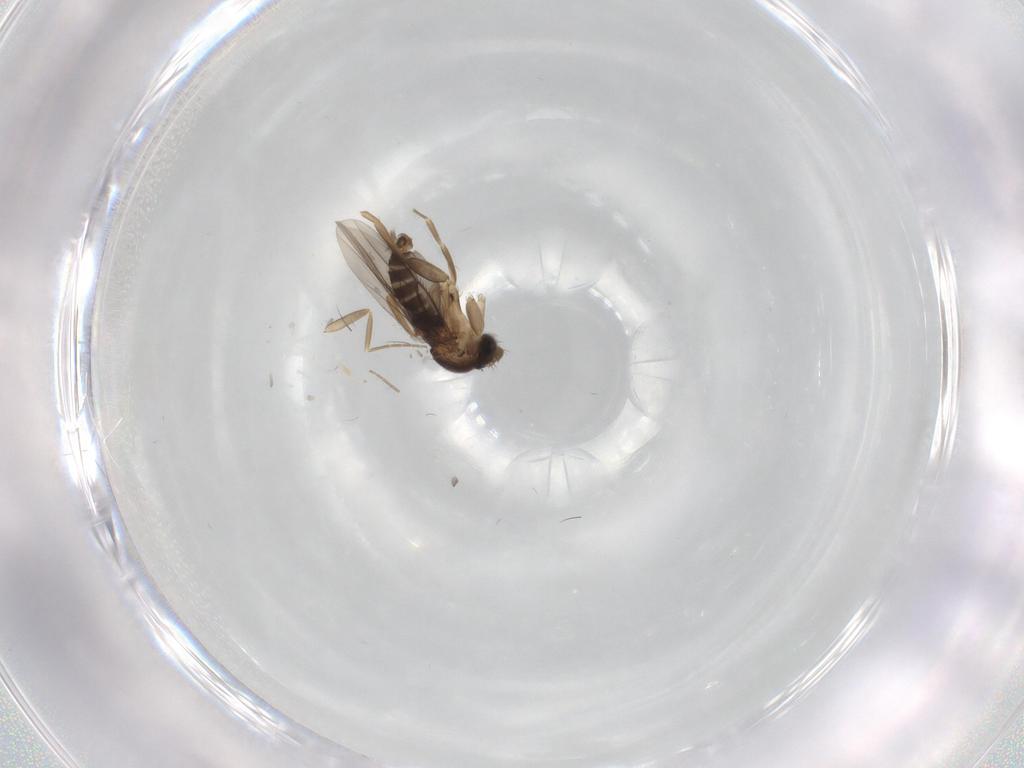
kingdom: Animalia
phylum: Arthropoda
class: Insecta
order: Diptera
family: Phoridae
